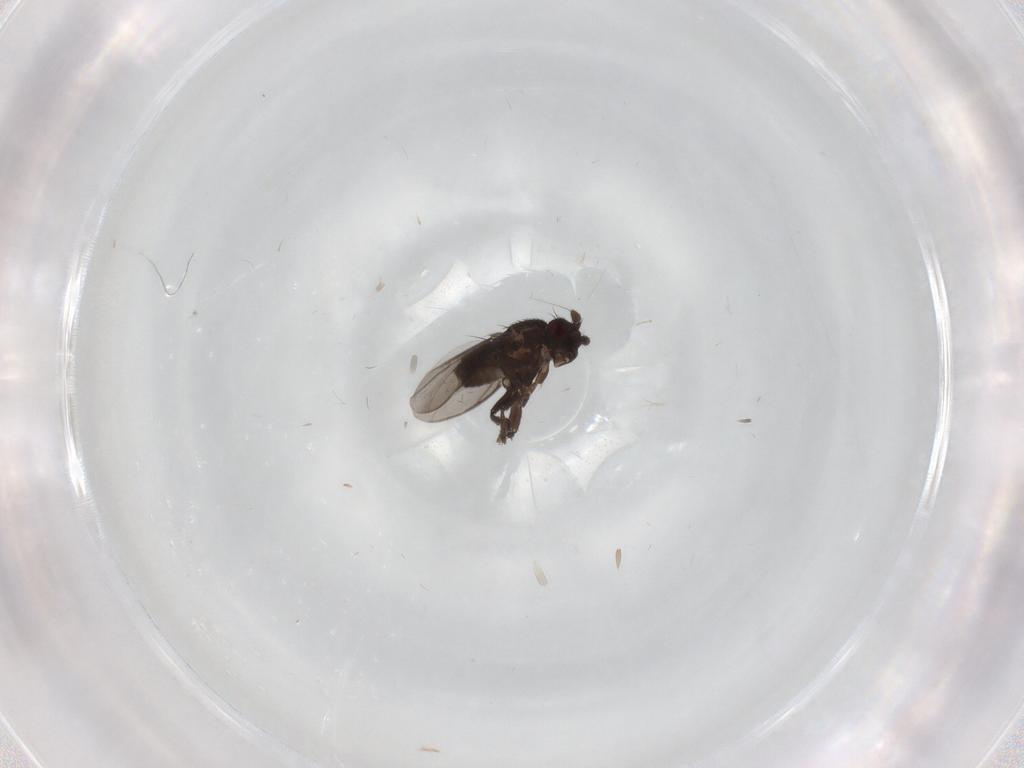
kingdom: Animalia
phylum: Arthropoda
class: Insecta
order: Diptera
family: Sphaeroceridae
